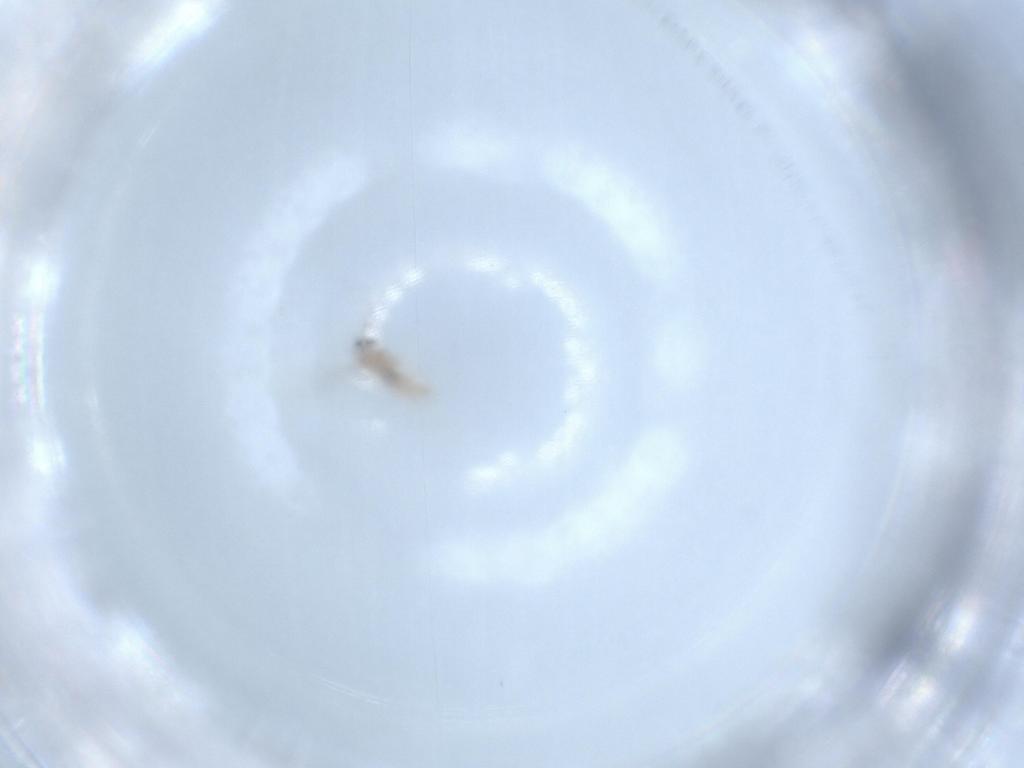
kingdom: Animalia
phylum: Arthropoda
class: Insecta
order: Diptera
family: Cecidomyiidae
